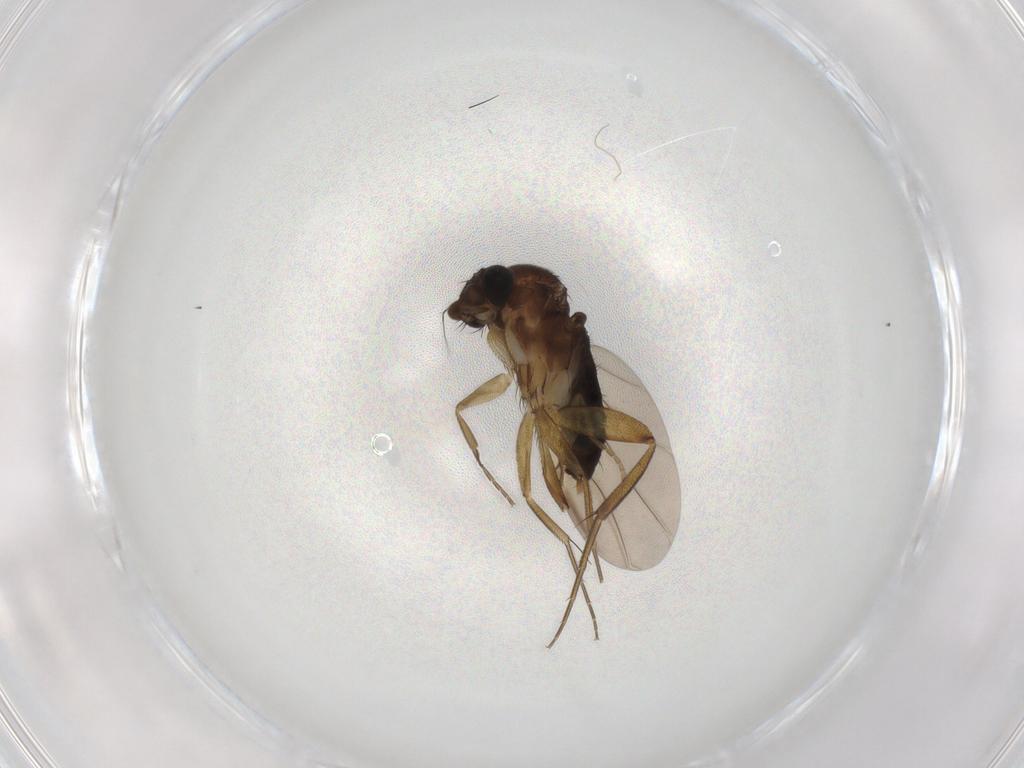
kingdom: Animalia
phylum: Arthropoda
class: Insecta
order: Diptera
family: Phoridae
